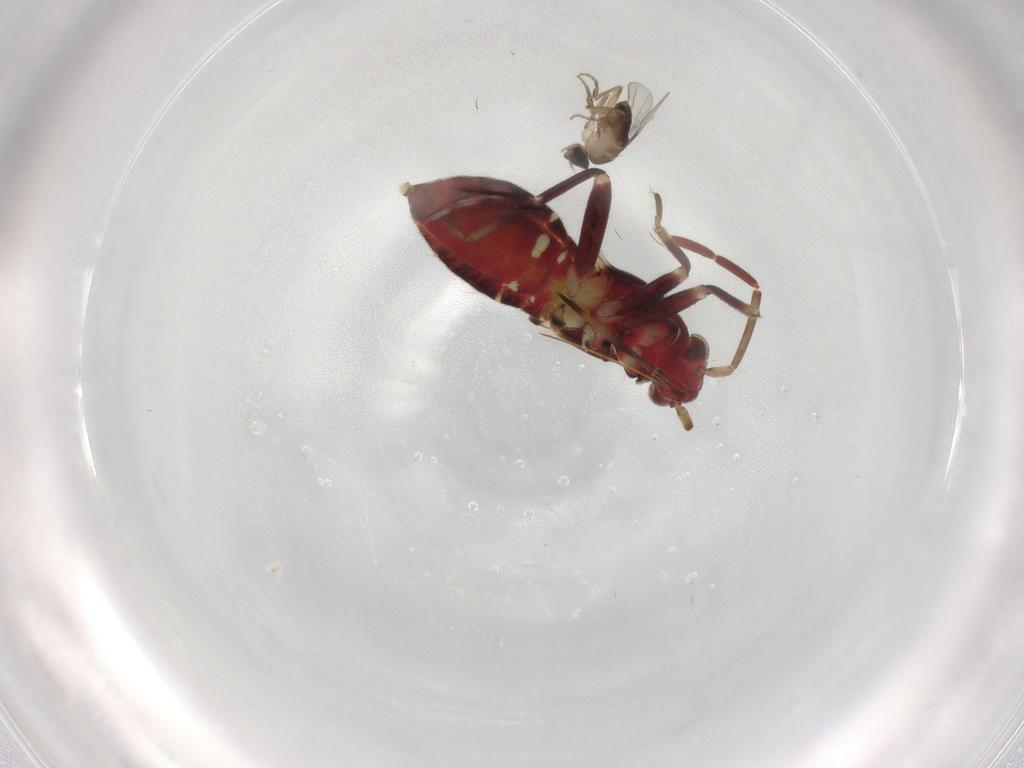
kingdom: Animalia
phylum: Arthropoda
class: Insecta
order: Diptera
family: Phoridae
